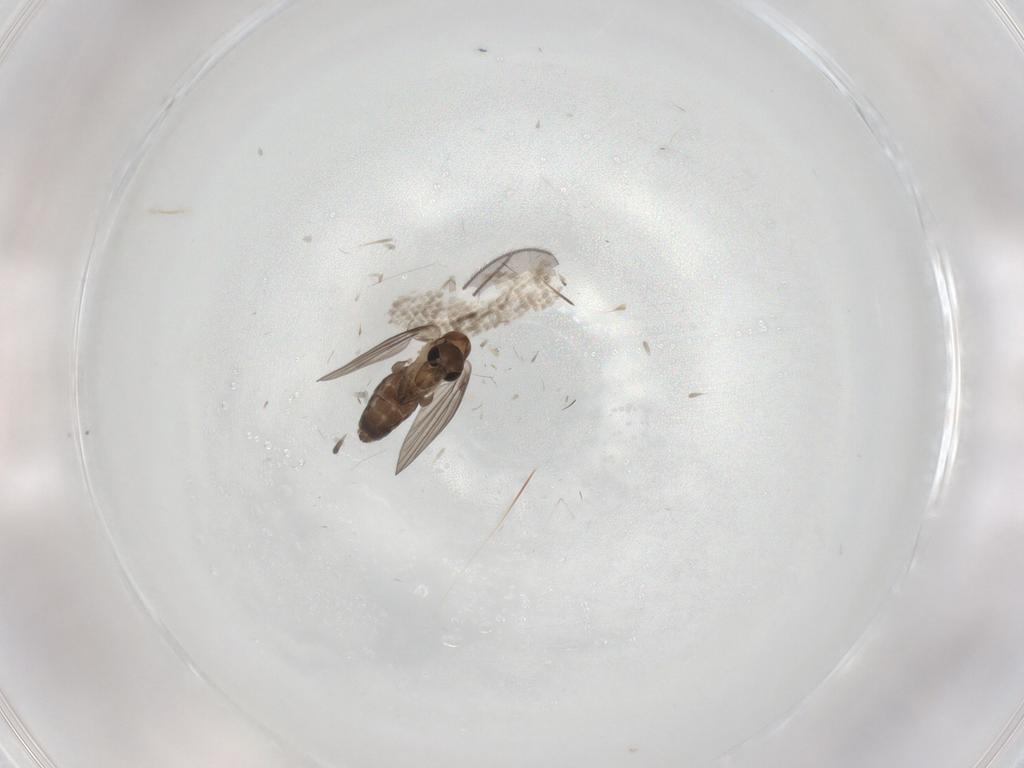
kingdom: Animalia
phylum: Arthropoda
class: Insecta
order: Diptera
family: Psychodidae
